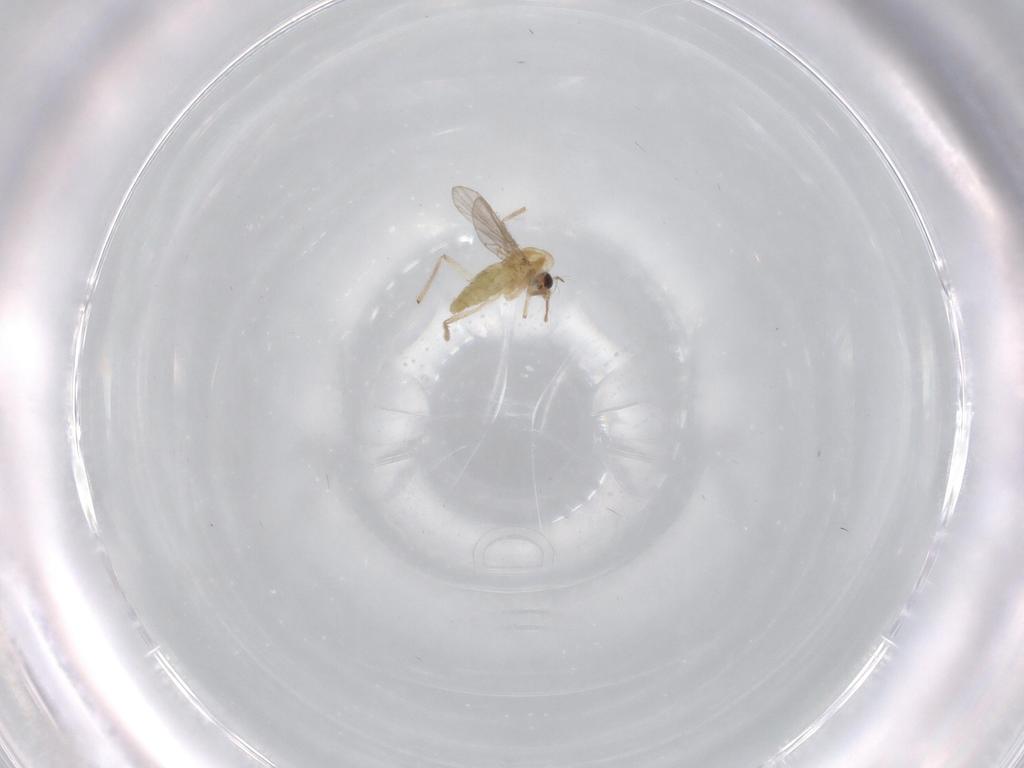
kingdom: Animalia
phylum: Arthropoda
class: Insecta
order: Diptera
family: Chironomidae
